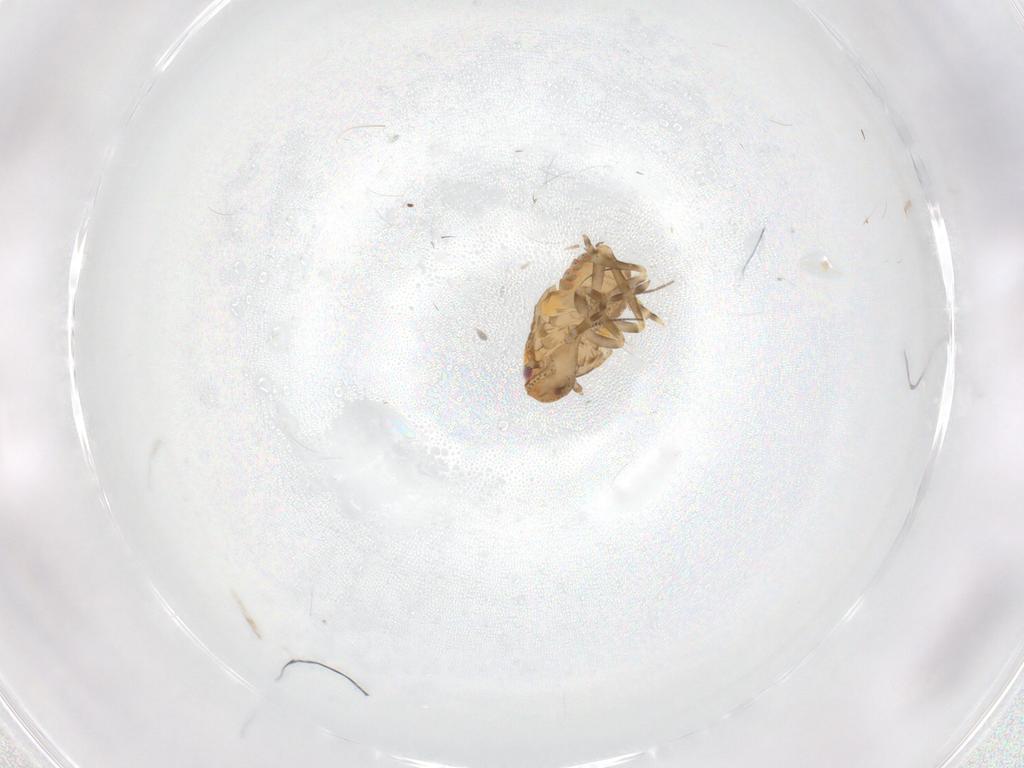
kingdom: Animalia
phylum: Arthropoda
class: Insecta
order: Hemiptera
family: Flatidae
